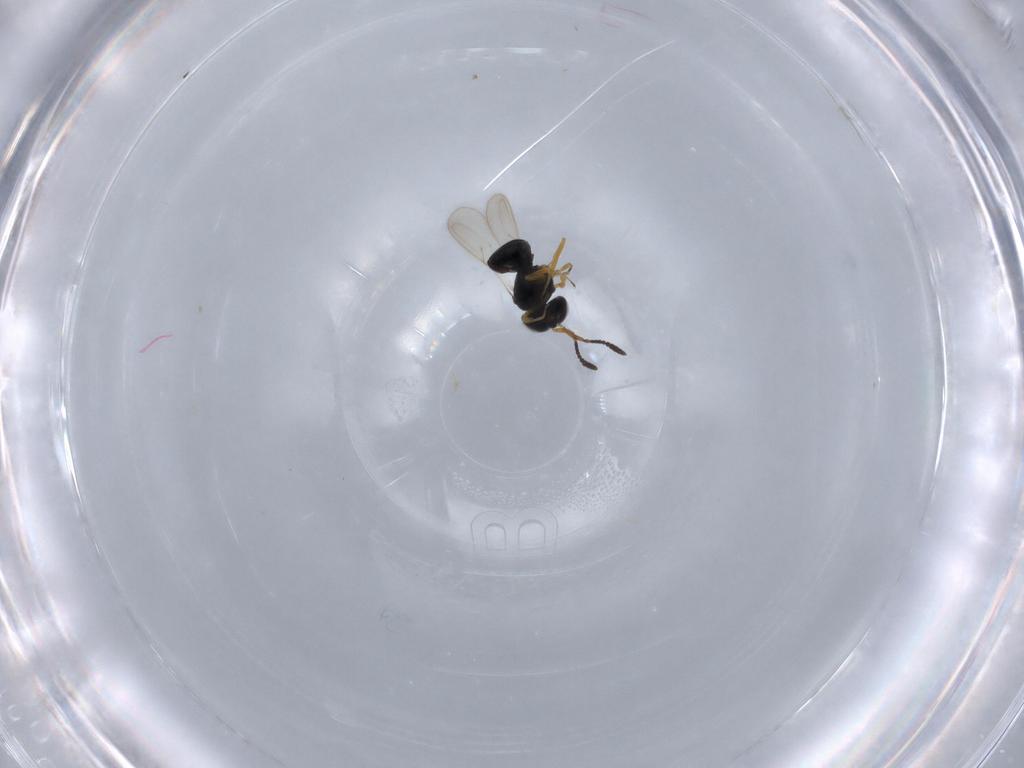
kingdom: Animalia
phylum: Arthropoda
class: Insecta
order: Hymenoptera
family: Scelionidae
